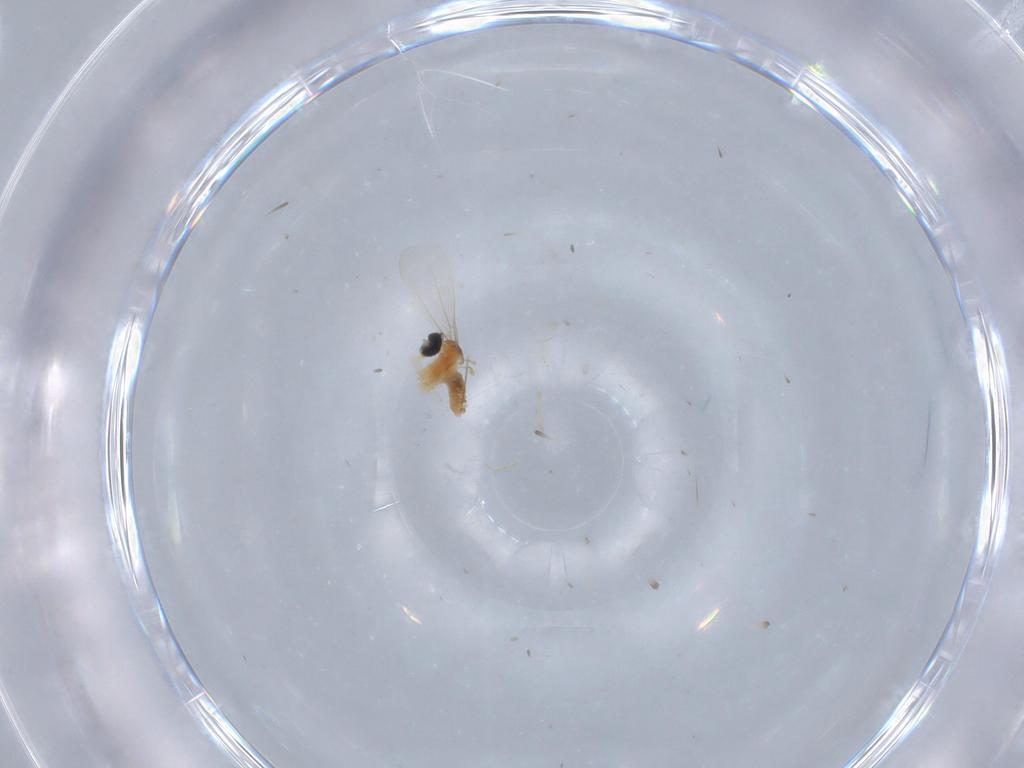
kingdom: Animalia
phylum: Arthropoda
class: Insecta
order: Diptera
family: Cecidomyiidae
